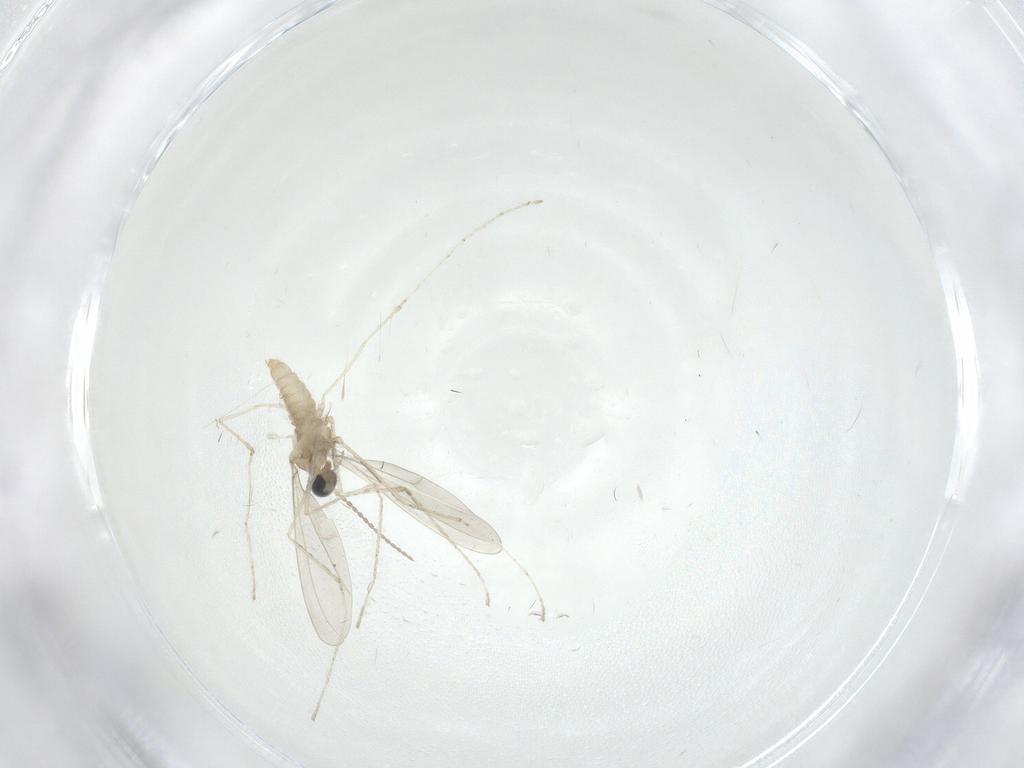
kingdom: Animalia
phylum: Arthropoda
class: Insecta
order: Diptera
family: Cecidomyiidae
